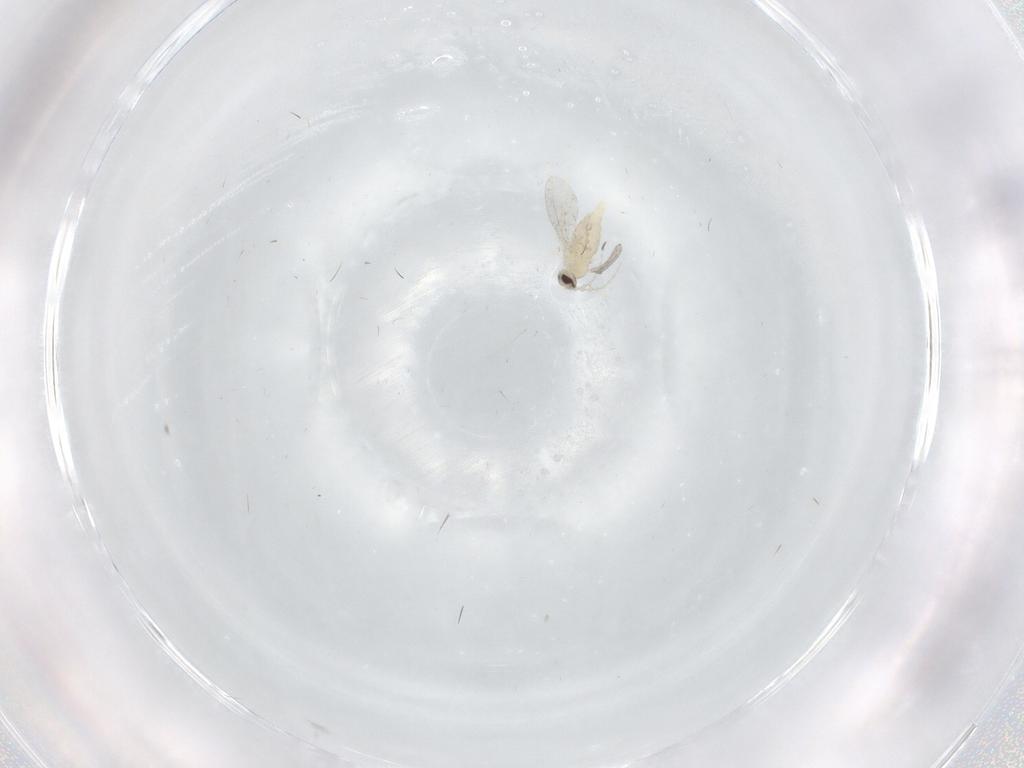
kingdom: Animalia
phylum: Arthropoda
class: Insecta
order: Diptera
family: Cecidomyiidae
